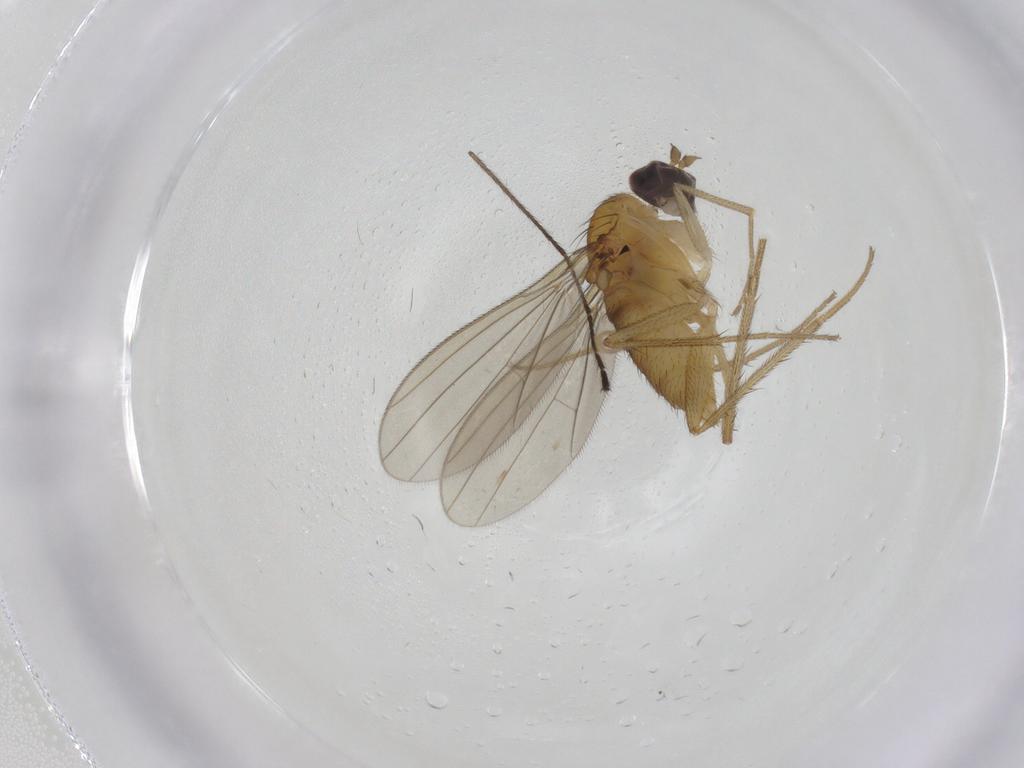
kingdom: Animalia
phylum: Arthropoda
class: Insecta
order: Diptera
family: Dolichopodidae
